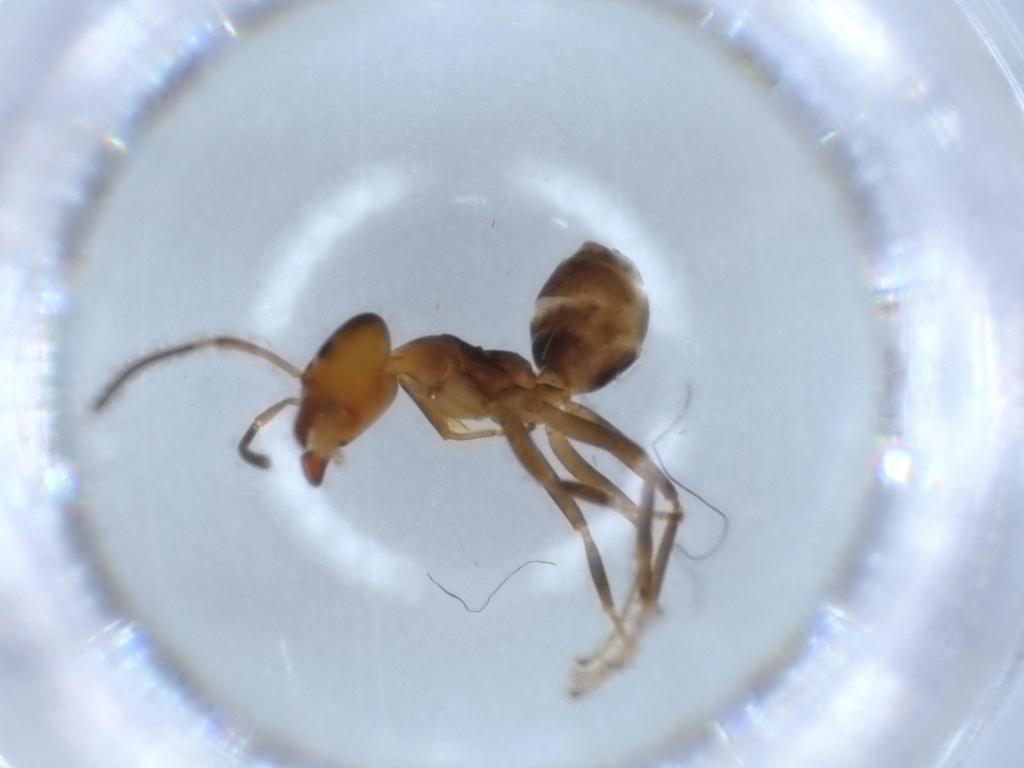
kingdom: Animalia
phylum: Arthropoda
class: Insecta
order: Hymenoptera
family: Formicidae
